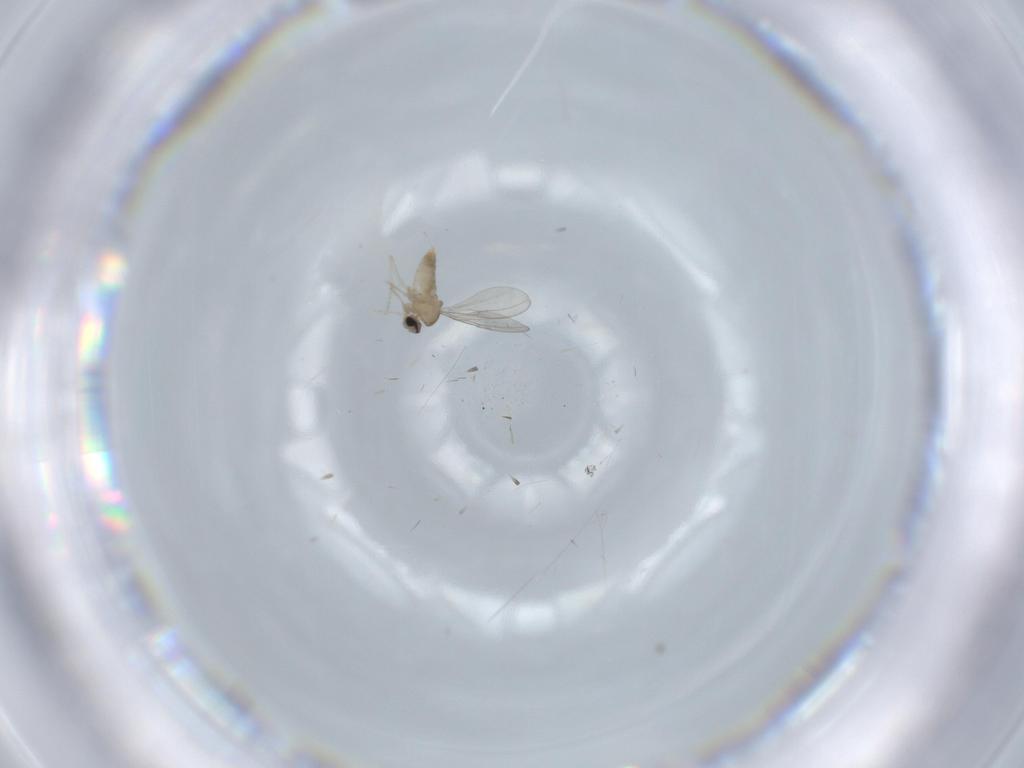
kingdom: Animalia
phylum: Arthropoda
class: Insecta
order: Diptera
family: Cecidomyiidae
